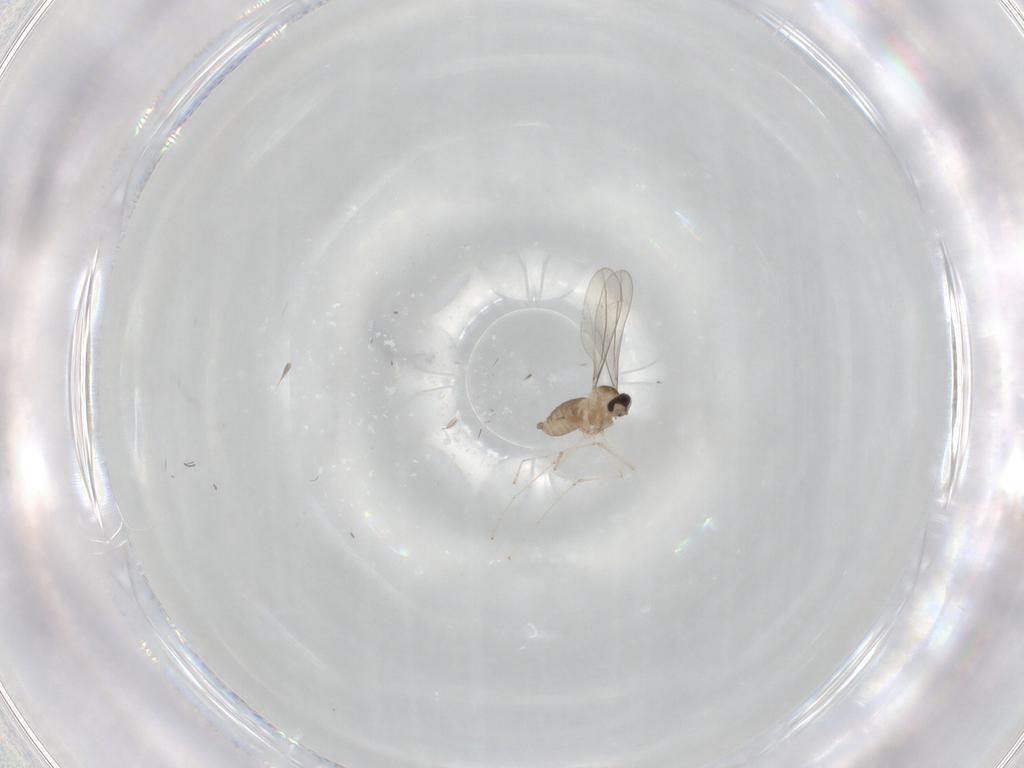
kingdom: Animalia
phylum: Arthropoda
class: Insecta
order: Diptera
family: Cecidomyiidae
